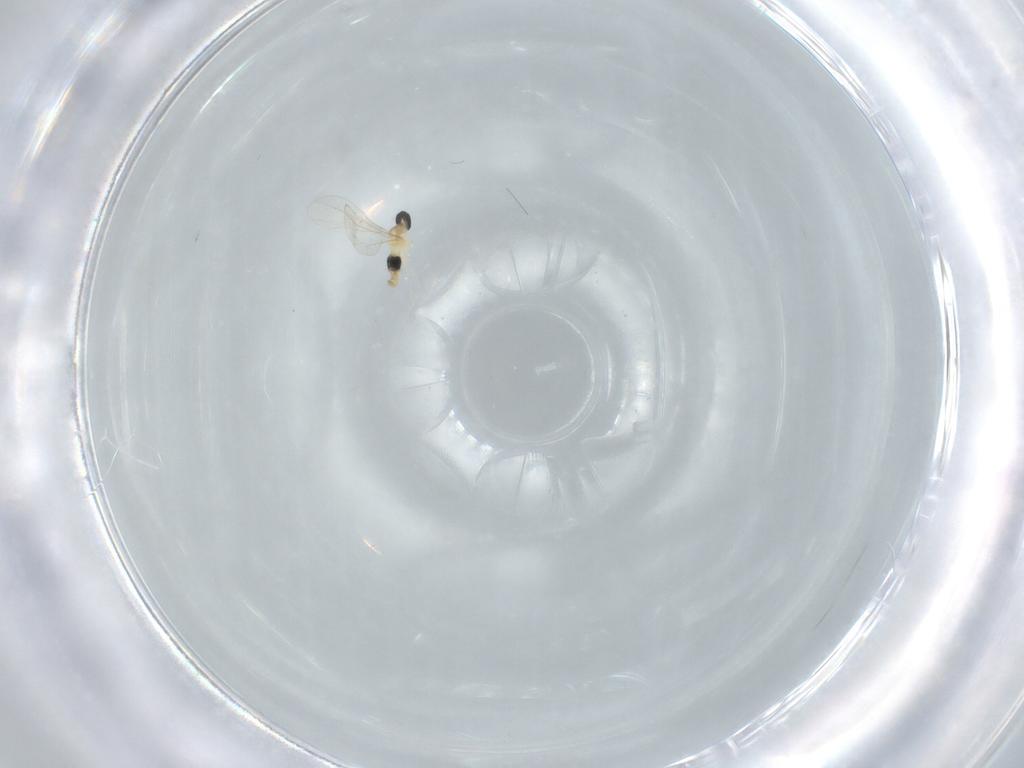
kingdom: Animalia
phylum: Arthropoda
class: Insecta
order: Diptera
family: Cecidomyiidae
